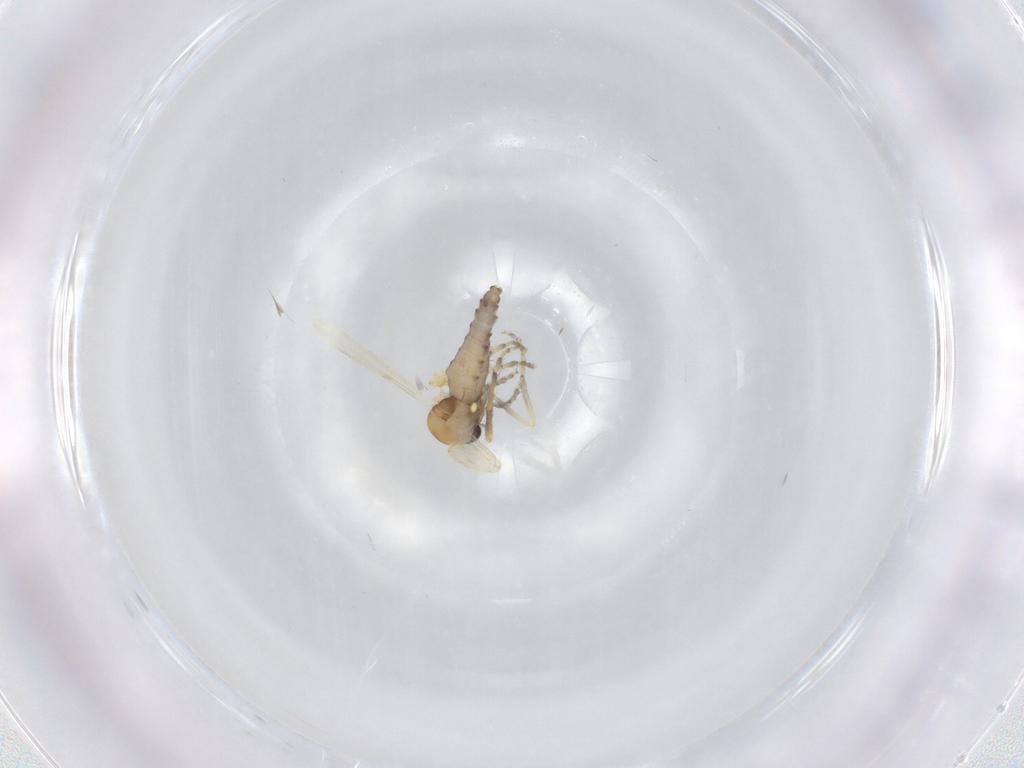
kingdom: Animalia
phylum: Arthropoda
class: Insecta
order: Diptera
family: Ceratopogonidae
